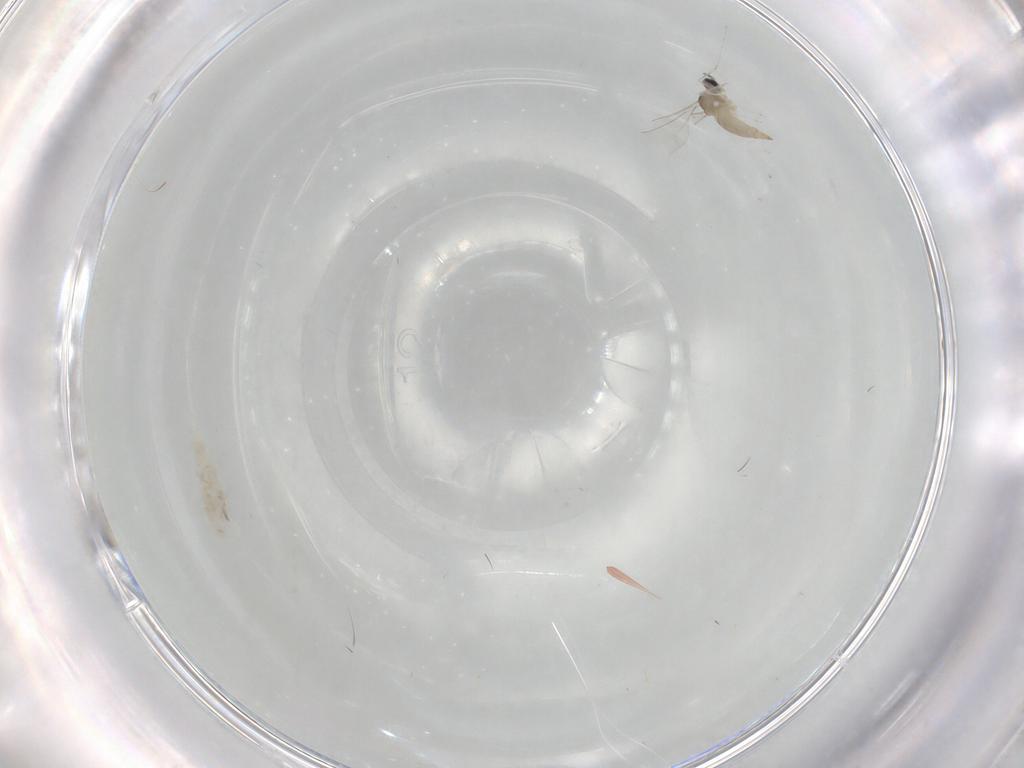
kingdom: Animalia
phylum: Arthropoda
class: Insecta
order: Diptera
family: Cecidomyiidae
